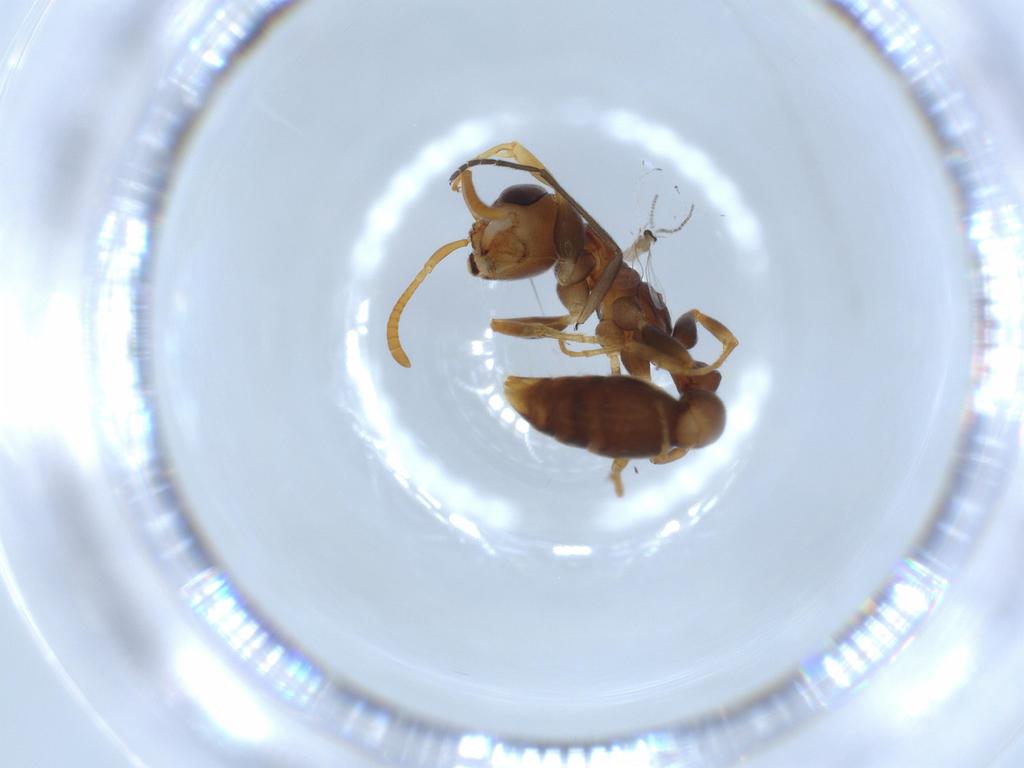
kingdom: Animalia
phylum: Arthropoda
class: Insecta
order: Hymenoptera
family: Formicidae
